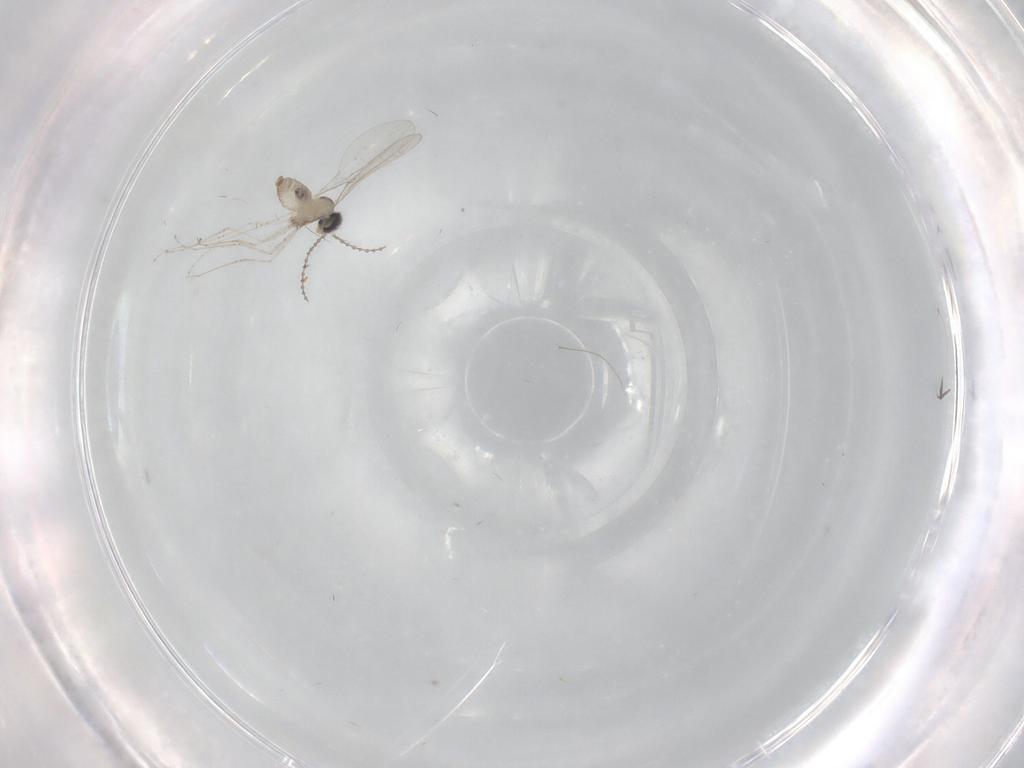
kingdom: Animalia
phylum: Arthropoda
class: Insecta
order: Diptera
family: Cecidomyiidae
